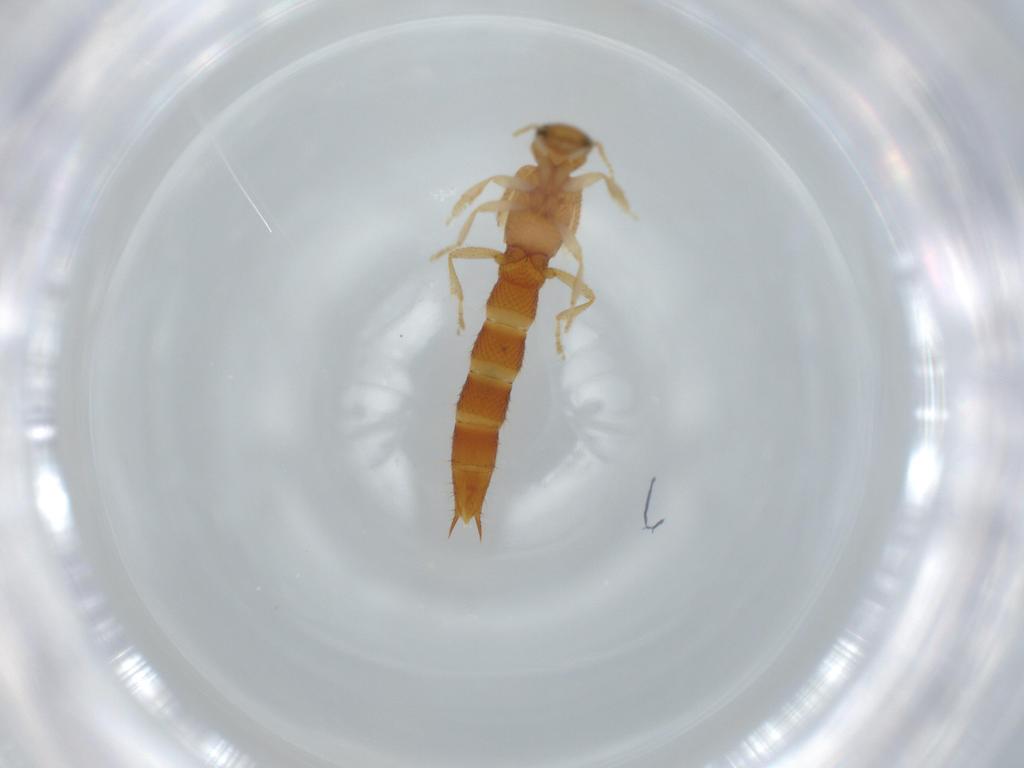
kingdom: Animalia
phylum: Arthropoda
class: Insecta
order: Coleoptera
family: Staphylinidae
